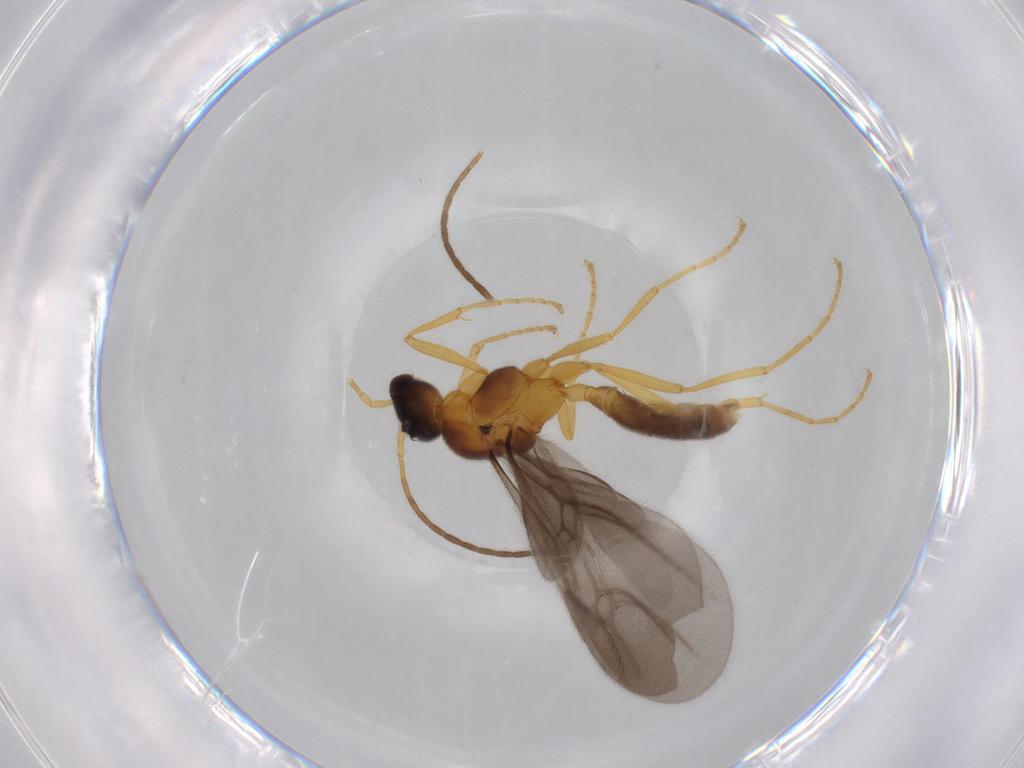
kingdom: Animalia
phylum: Arthropoda
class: Insecta
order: Hymenoptera
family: Formicidae
